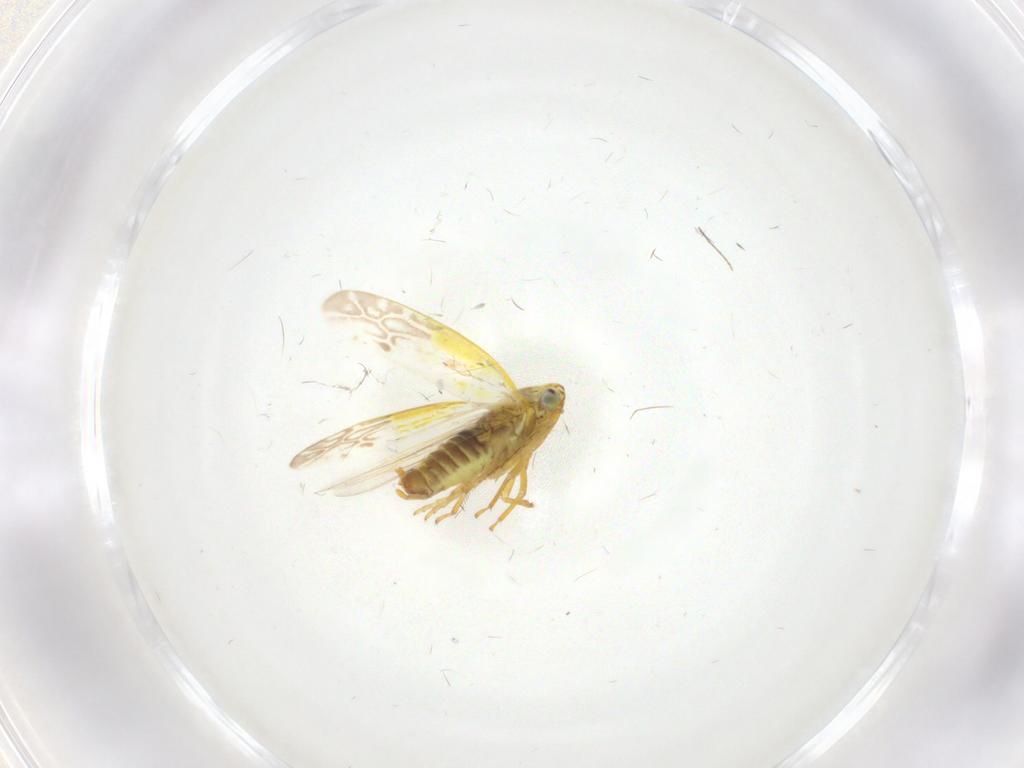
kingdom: Animalia
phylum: Arthropoda
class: Insecta
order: Hemiptera
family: Cicadellidae
